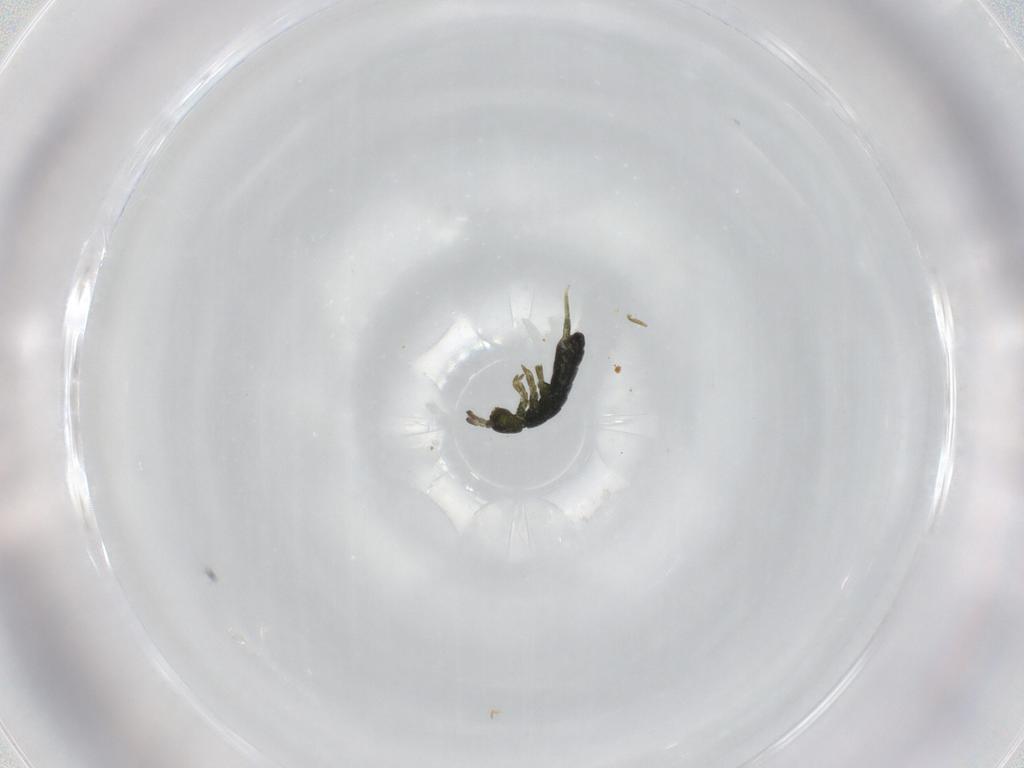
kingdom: Animalia
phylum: Arthropoda
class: Collembola
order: Entomobryomorpha
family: Isotomidae
